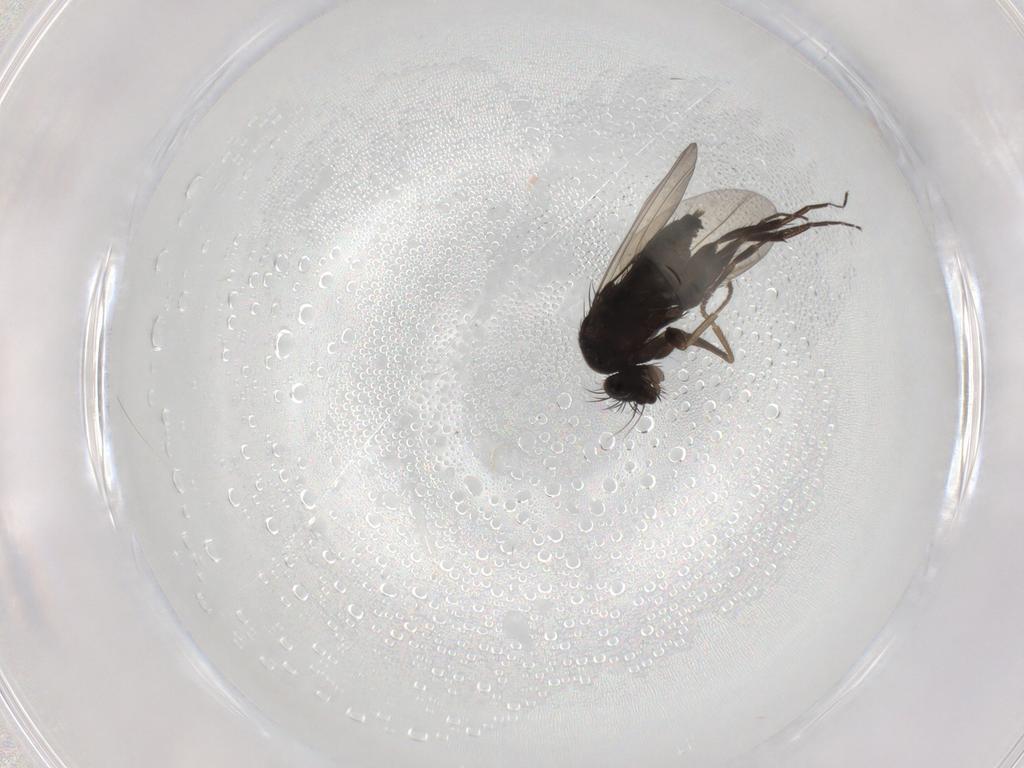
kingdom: Animalia
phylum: Arthropoda
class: Insecta
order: Diptera
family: Phoridae
